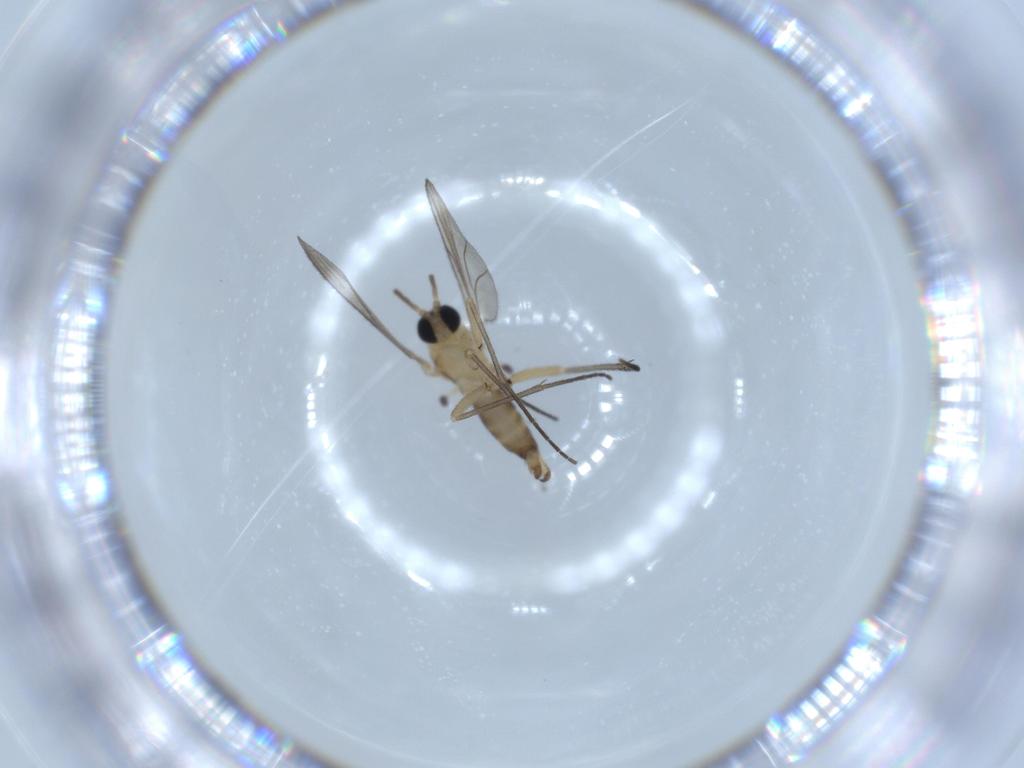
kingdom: Animalia
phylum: Arthropoda
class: Insecta
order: Diptera
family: Sciaridae
